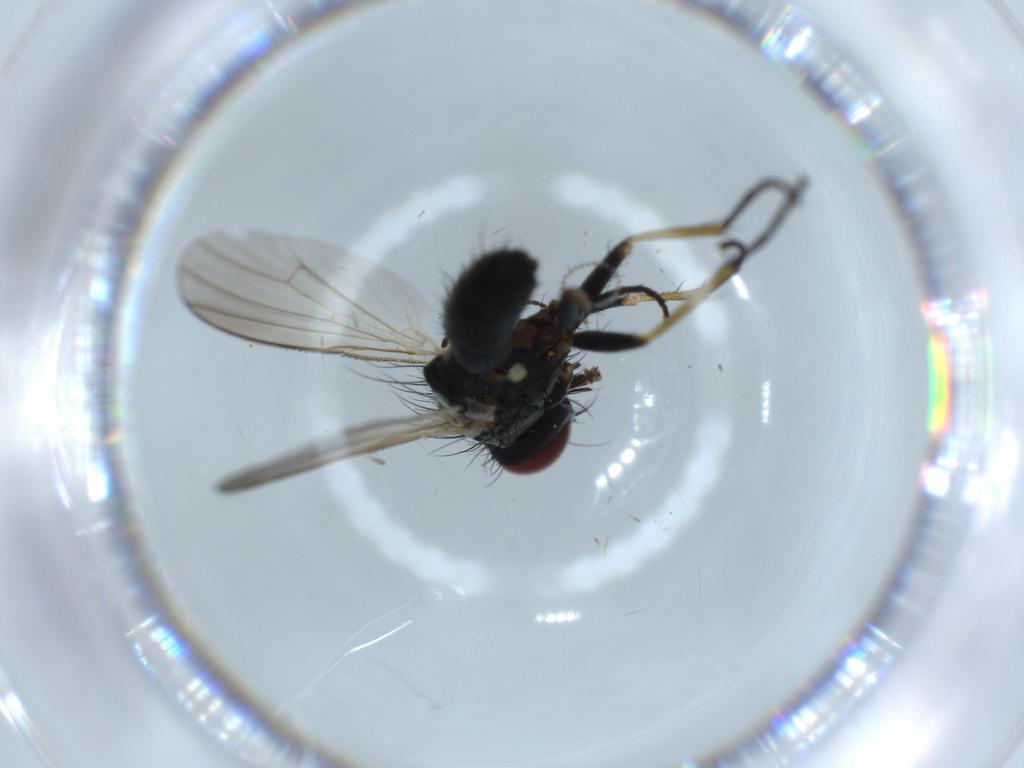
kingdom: Animalia
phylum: Arthropoda
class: Insecta
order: Diptera
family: Muscidae
